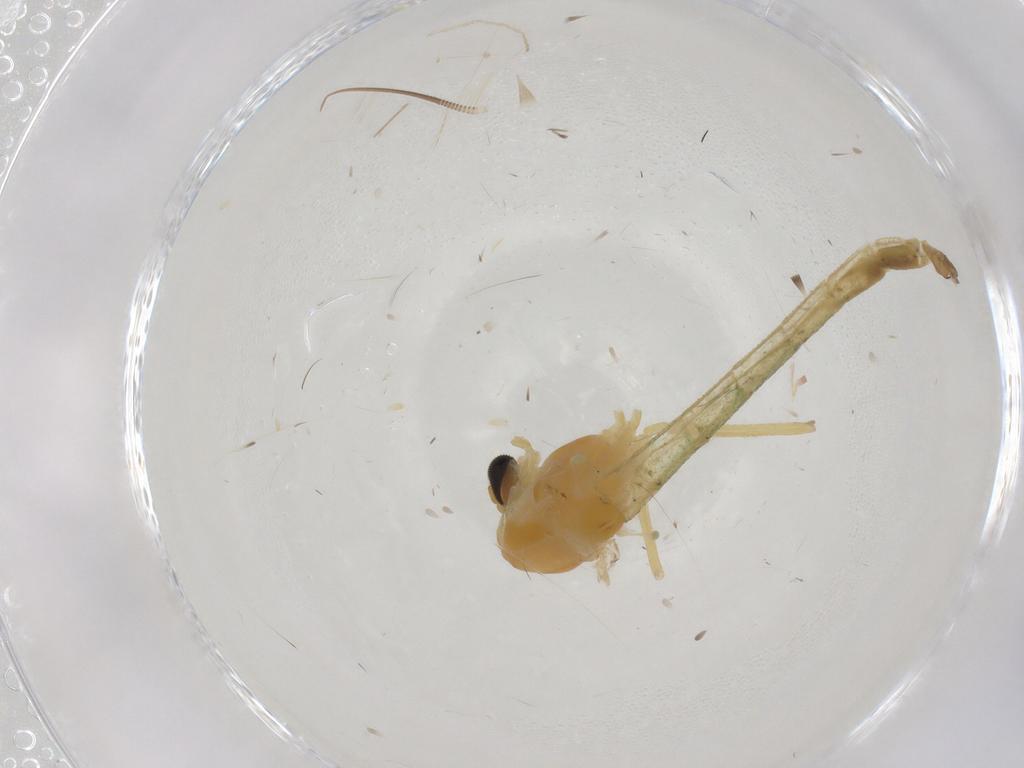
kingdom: Animalia
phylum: Arthropoda
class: Insecta
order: Diptera
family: Chironomidae
